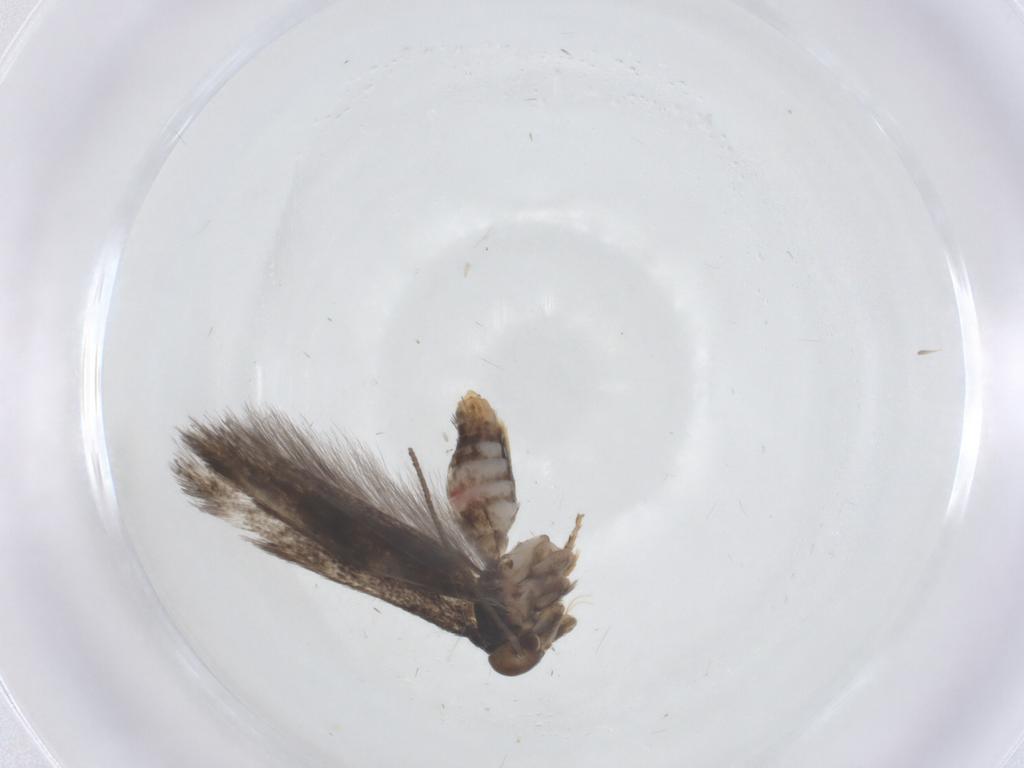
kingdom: Animalia
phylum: Arthropoda
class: Insecta
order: Lepidoptera
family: Elachistidae
